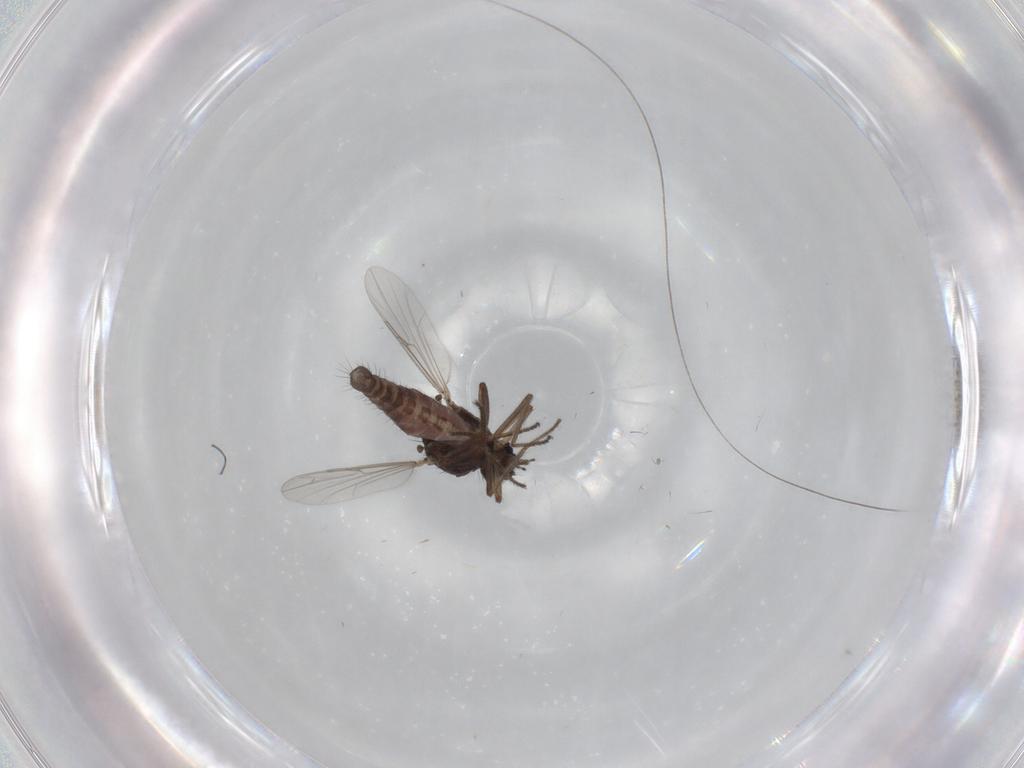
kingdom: Animalia
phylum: Arthropoda
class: Insecta
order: Diptera
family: Ceratopogonidae
